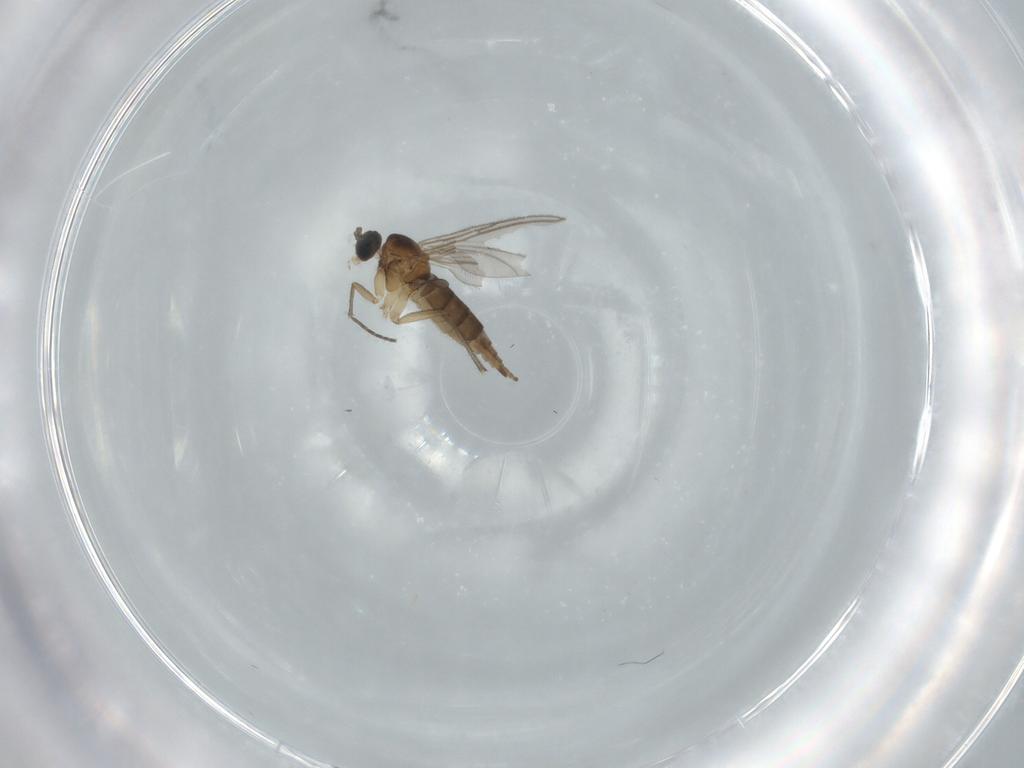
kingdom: Animalia
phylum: Arthropoda
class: Insecta
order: Diptera
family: Sciaridae
